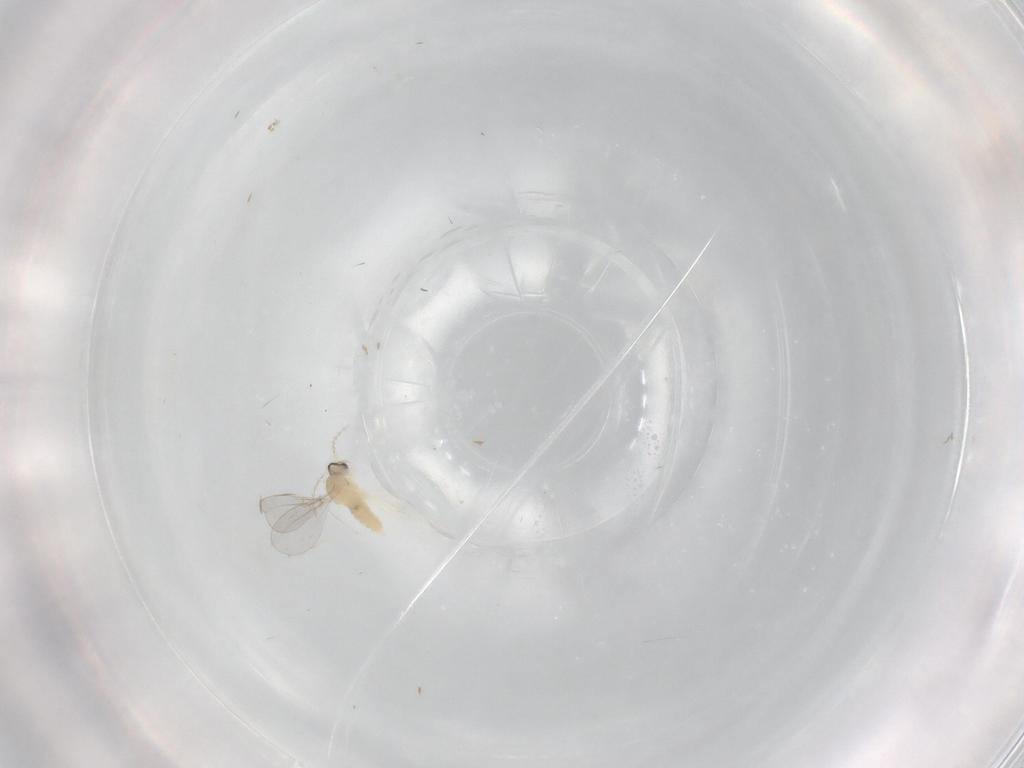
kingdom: Animalia
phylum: Arthropoda
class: Insecta
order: Diptera
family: Cecidomyiidae
